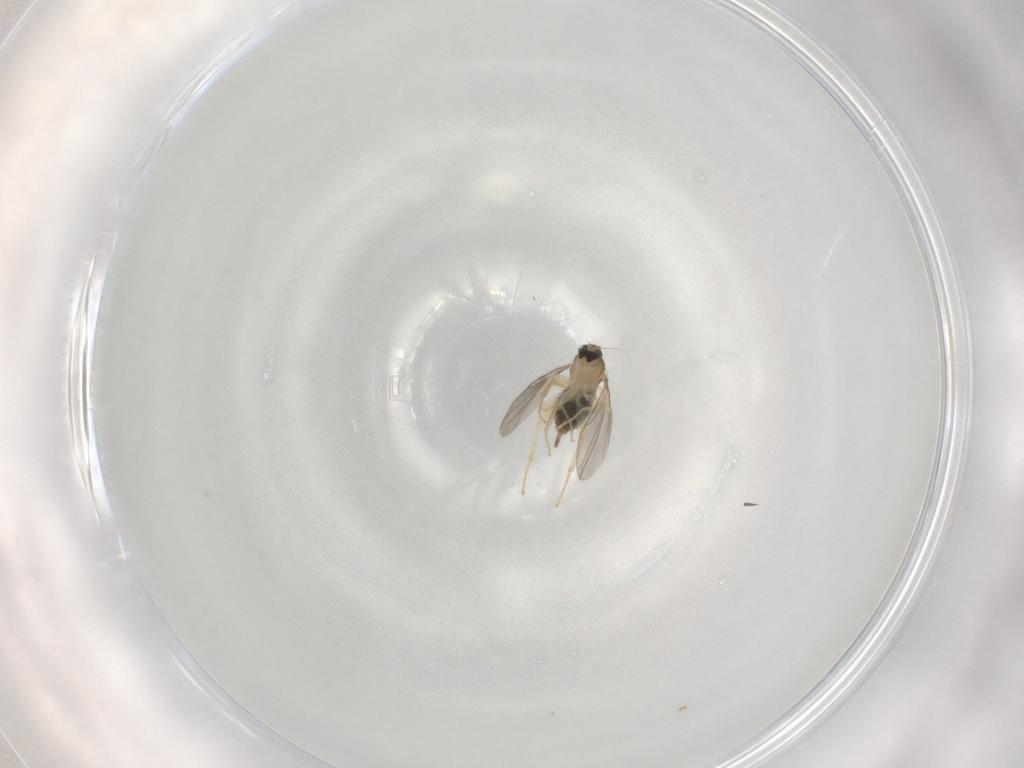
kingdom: Animalia
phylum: Arthropoda
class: Insecta
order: Diptera
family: Hybotidae
